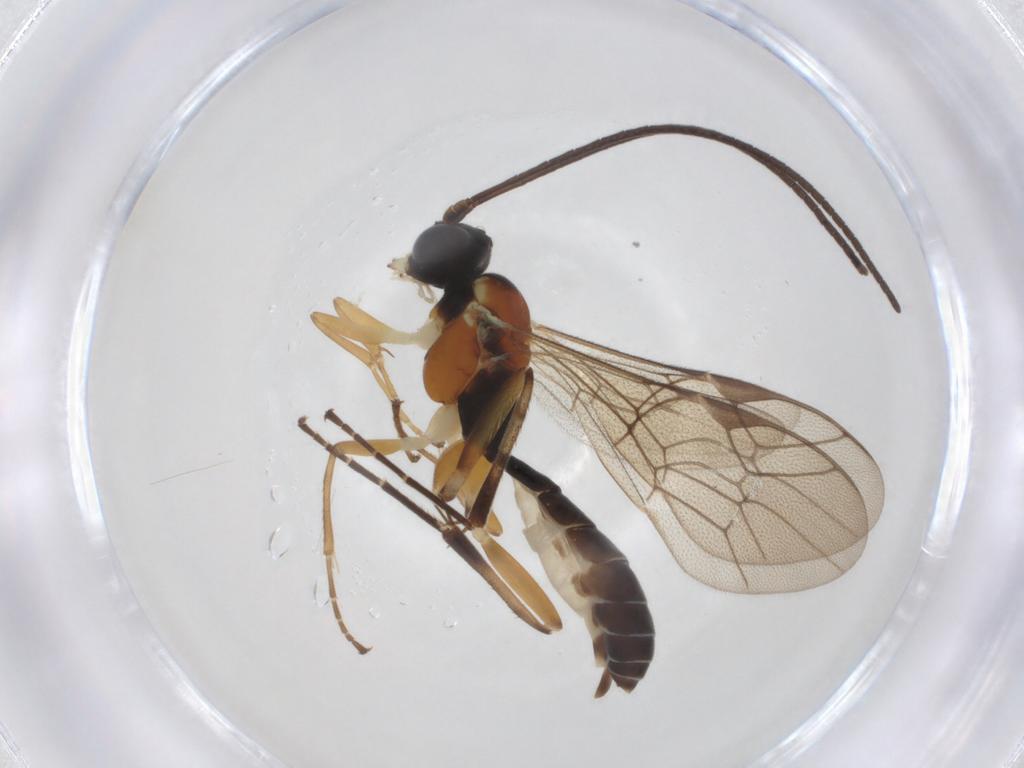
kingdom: Animalia
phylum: Arthropoda
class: Insecta
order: Hymenoptera
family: Ichneumonidae
